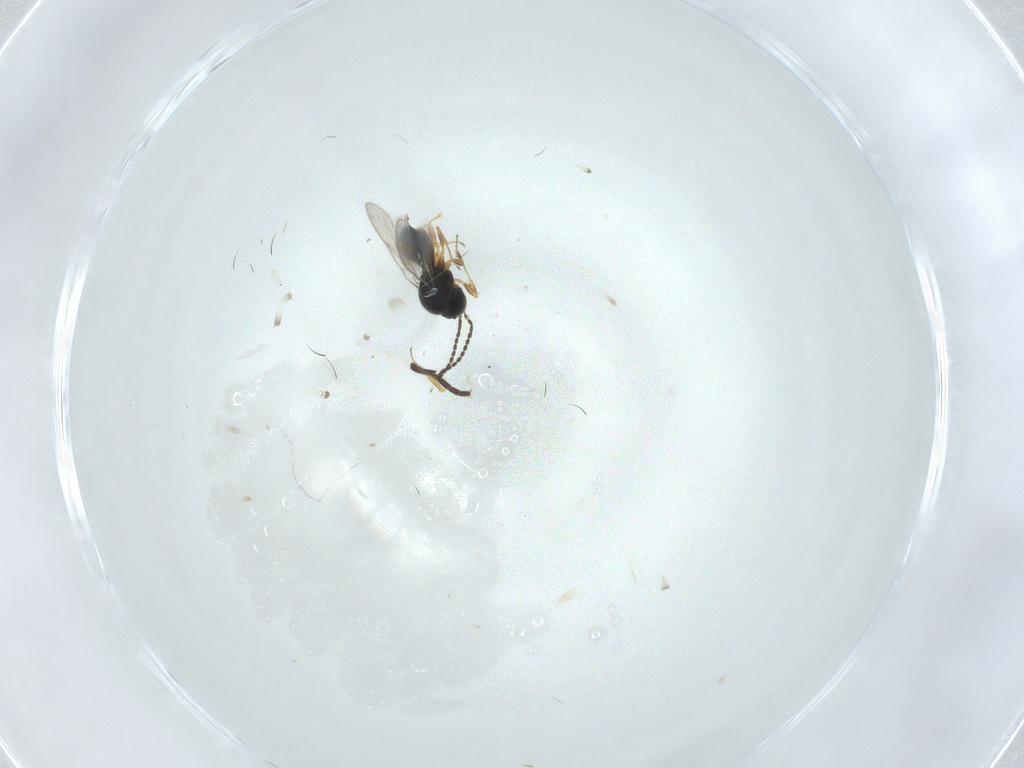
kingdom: Animalia
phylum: Arthropoda
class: Insecta
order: Hymenoptera
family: Scelionidae
